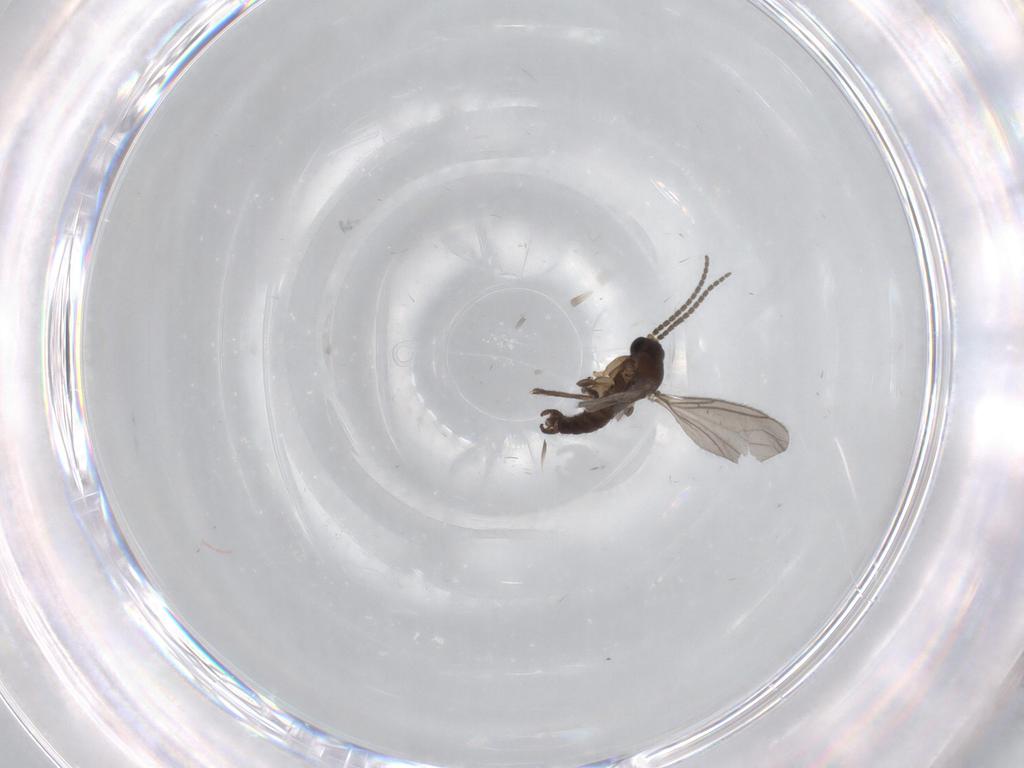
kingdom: Animalia
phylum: Arthropoda
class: Insecta
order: Diptera
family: Sciaridae
